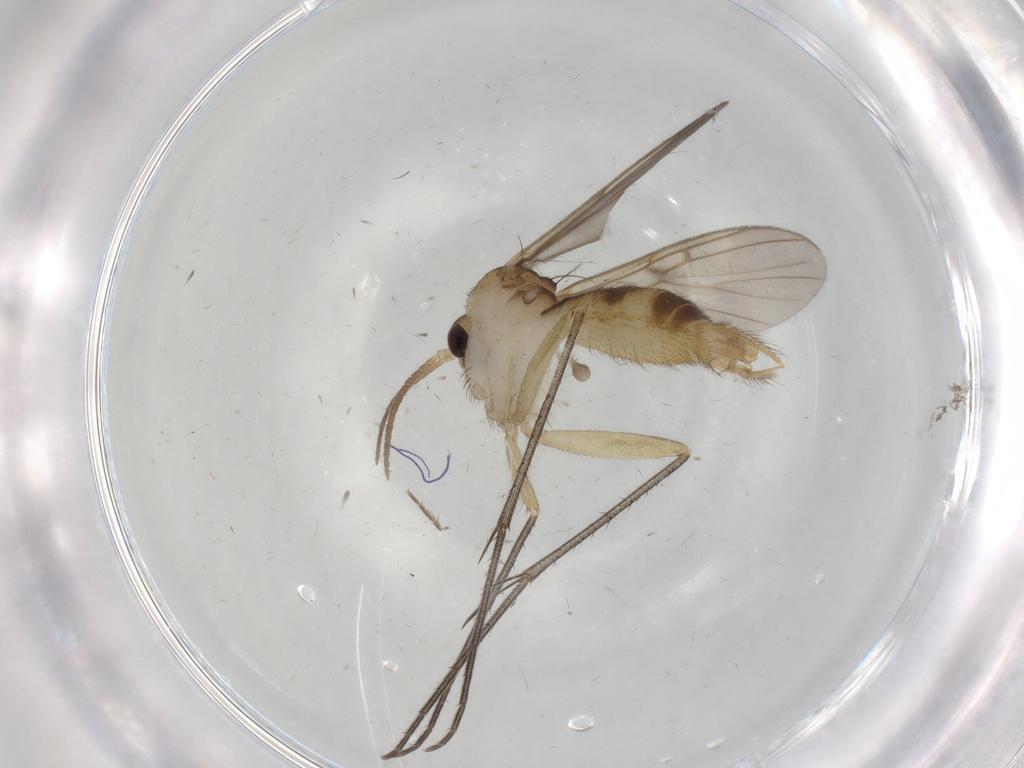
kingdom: Animalia
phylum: Arthropoda
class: Insecta
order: Diptera
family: Sciaridae
